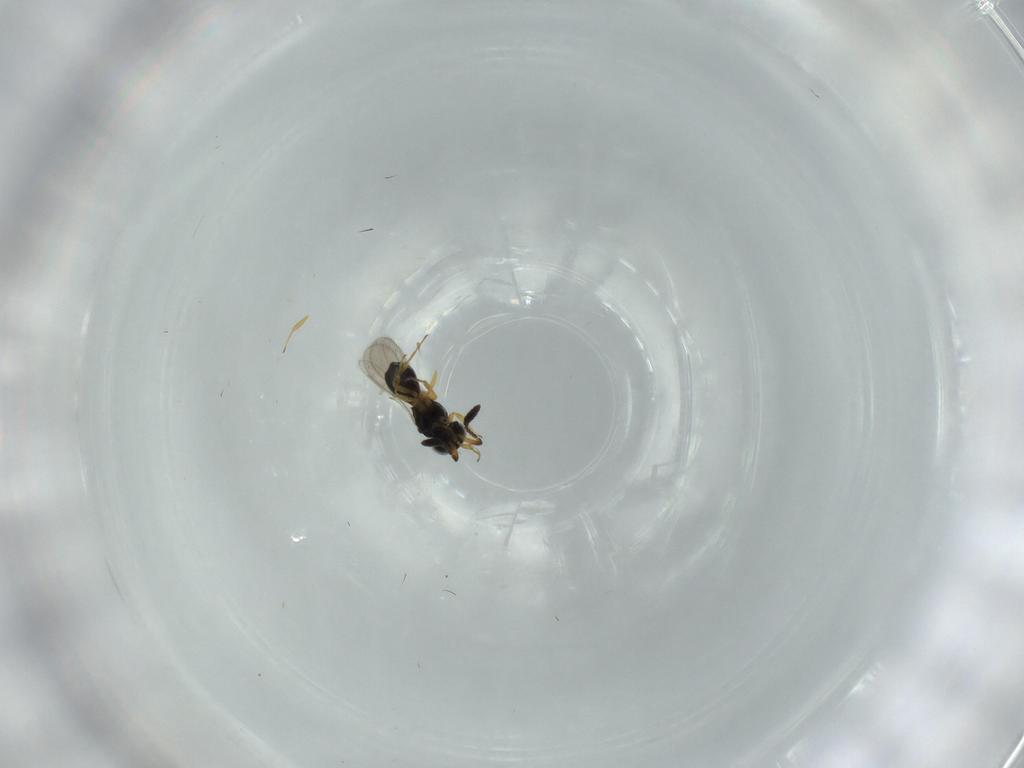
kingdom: Animalia
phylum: Arthropoda
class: Insecta
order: Hymenoptera
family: Scelionidae
